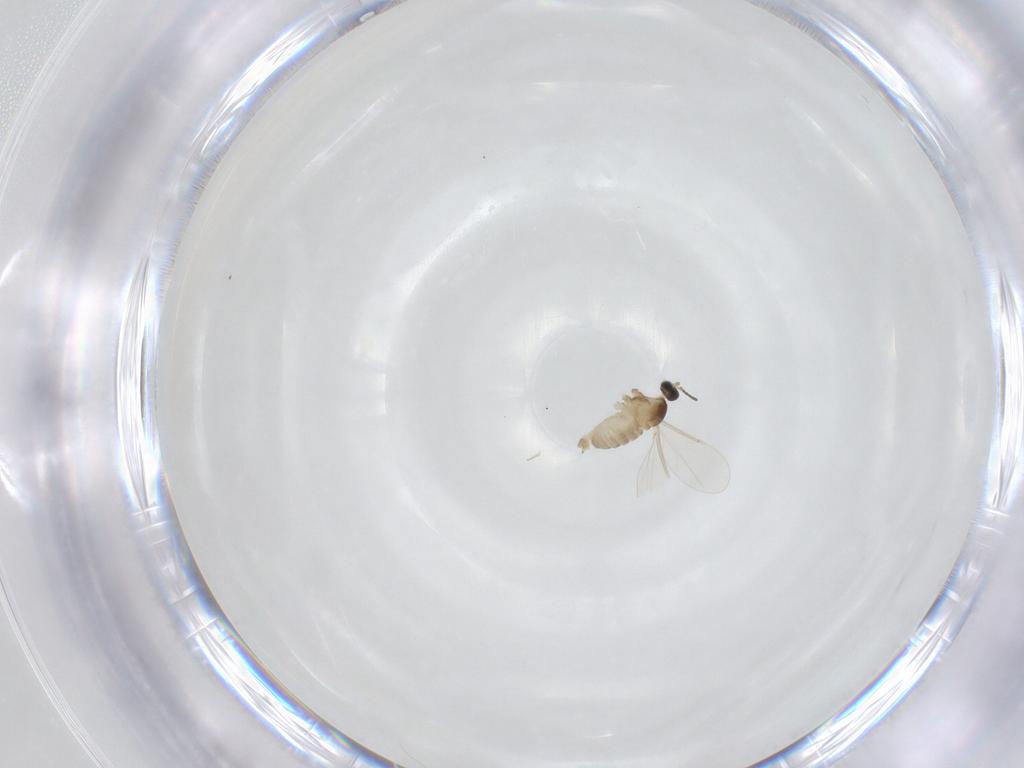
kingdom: Animalia
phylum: Arthropoda
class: Insecta
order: Diptera
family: Cecidomyiidae
